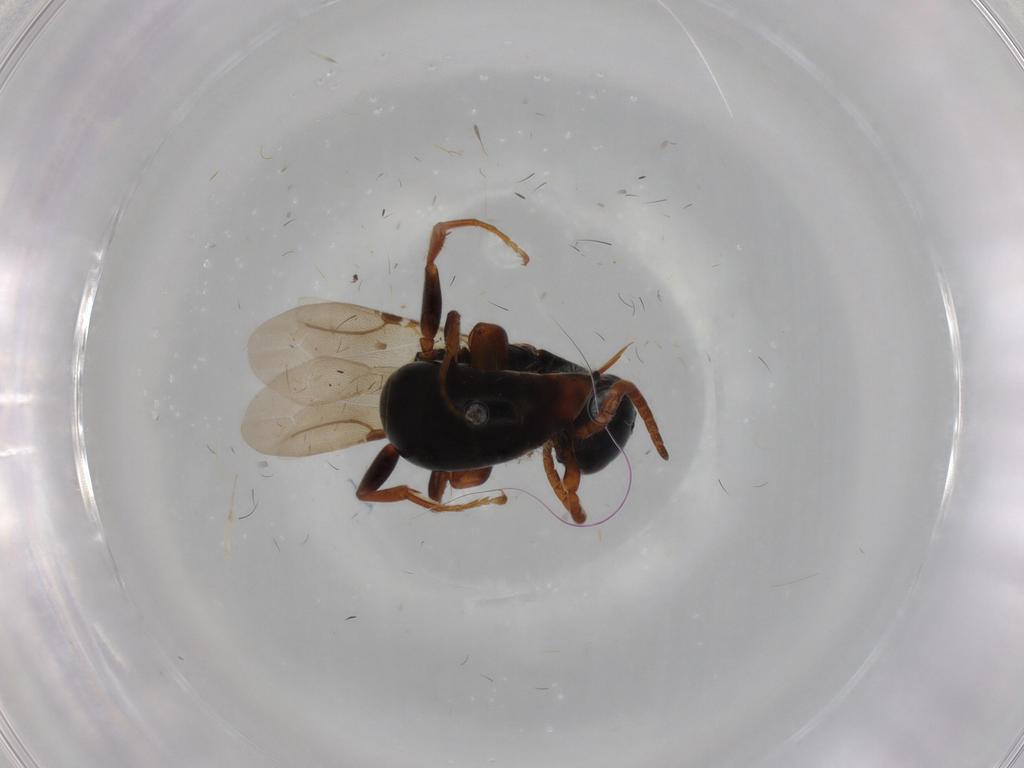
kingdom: Animalia
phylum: Arthropoda
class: Insecta
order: Hymenoptera
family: Bethylidae
